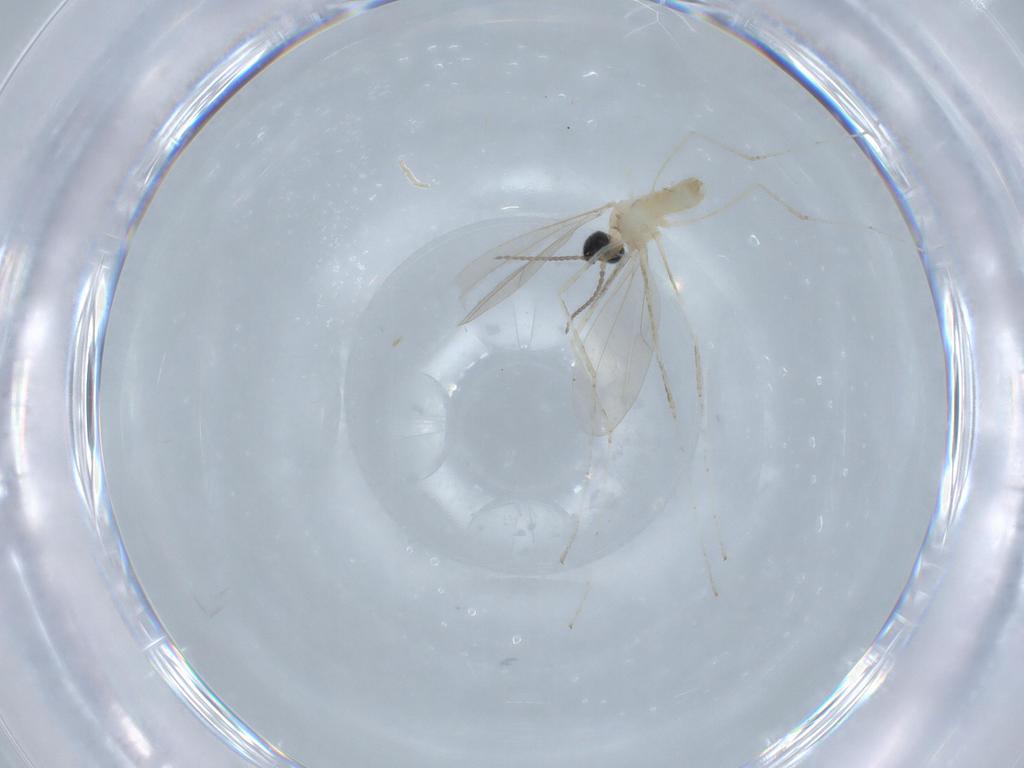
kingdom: Animalia
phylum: Arthropoda
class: Insecta
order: Diptera
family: Cecidomyiidae
